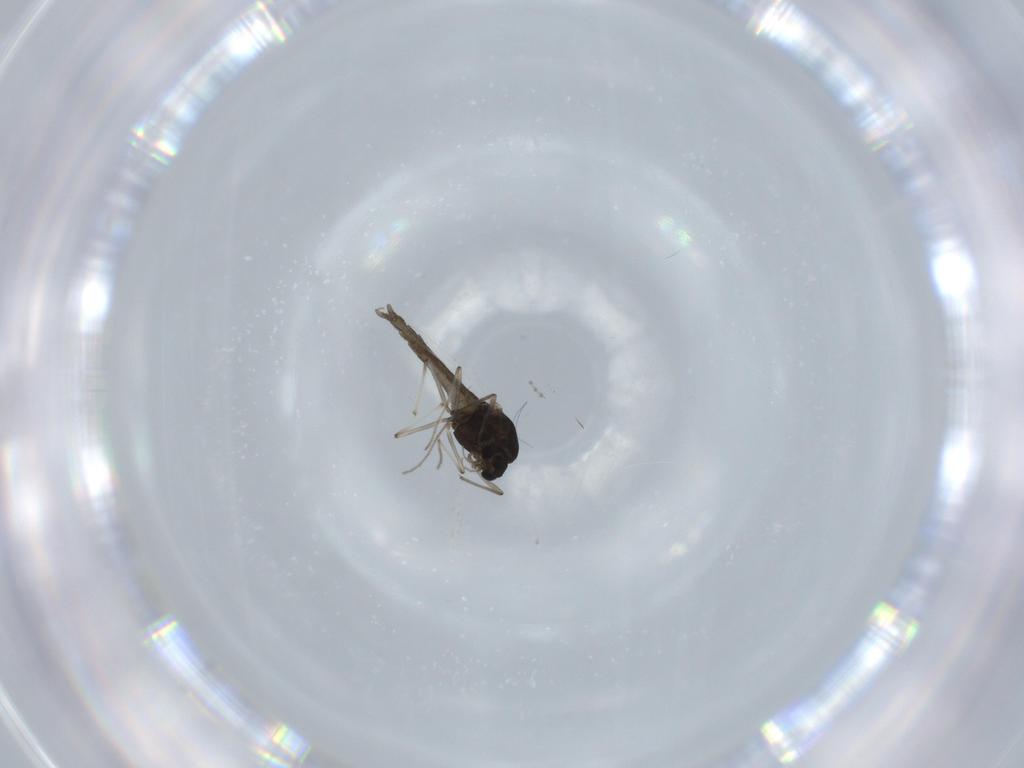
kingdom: Animalia
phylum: Arthropoda
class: Insecta
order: Diptera
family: Chironomidae
